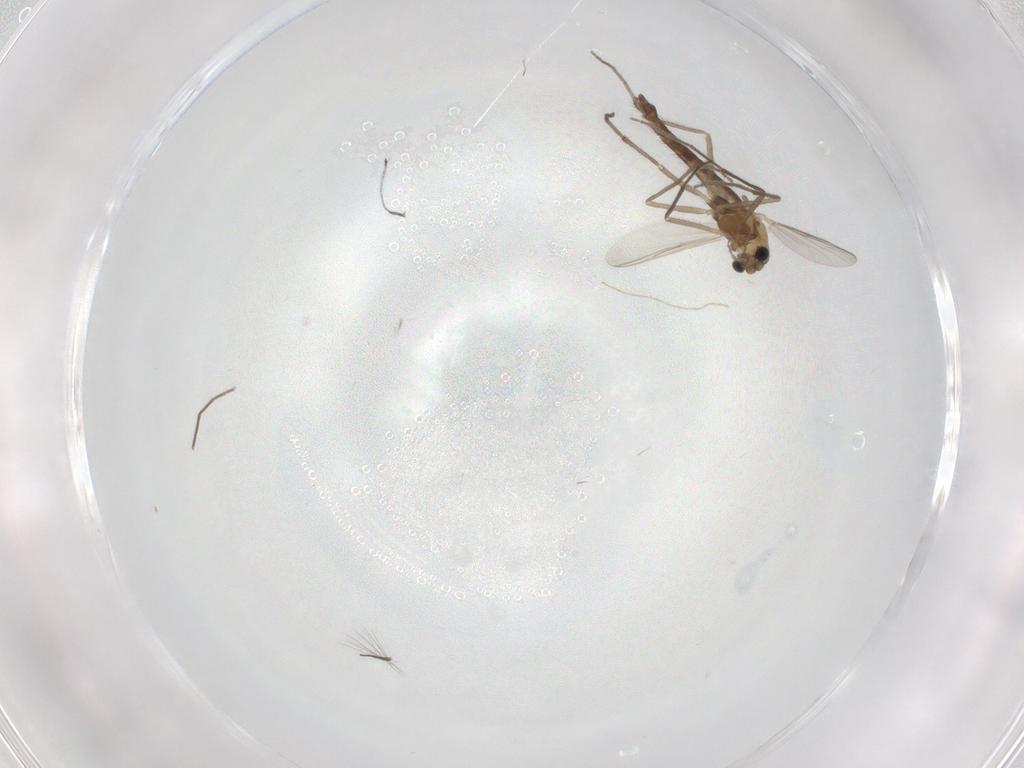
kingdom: Animalia
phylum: Arthropoda
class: Insecta
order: Diptera
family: Chironomidae
